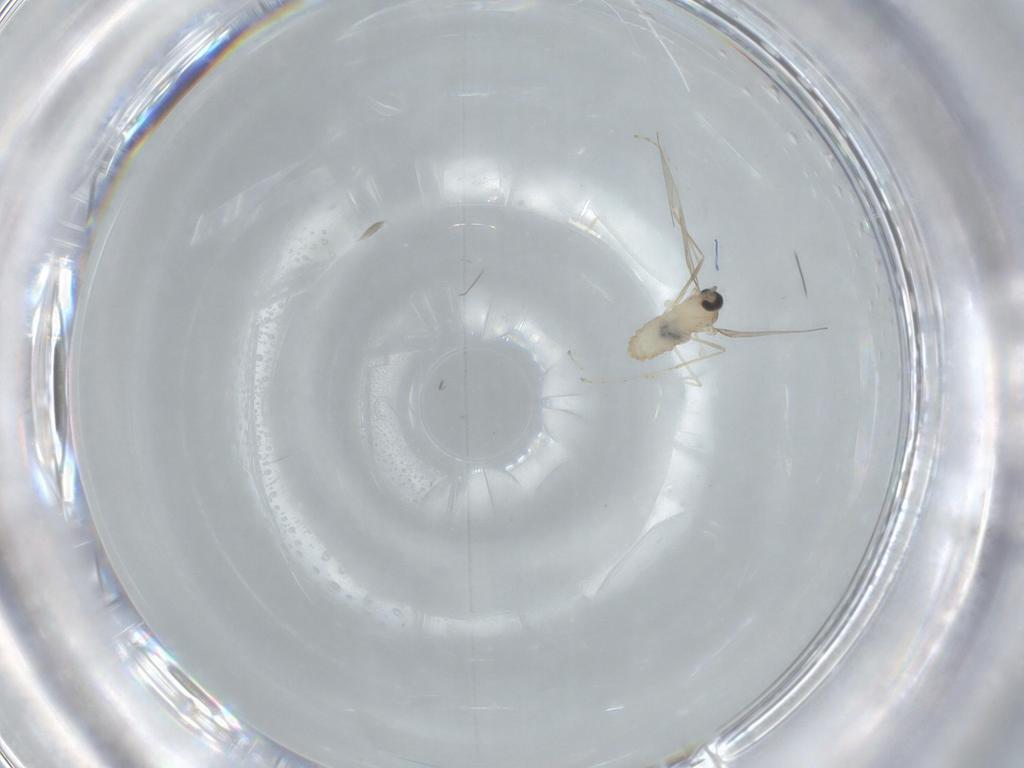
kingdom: Animalia
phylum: Arthropoda
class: Insecta
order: Diptera
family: Cecidomyiidae
